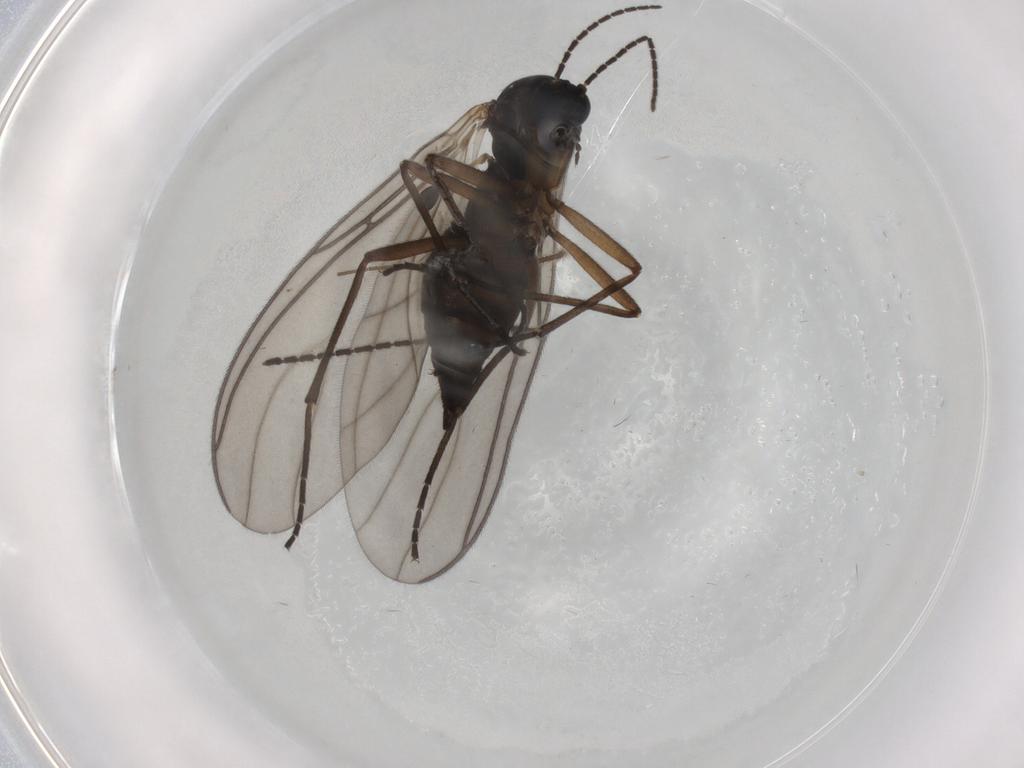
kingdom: Animalia
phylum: Arthropoda
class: Insecta
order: Diptera
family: Sciaridae
